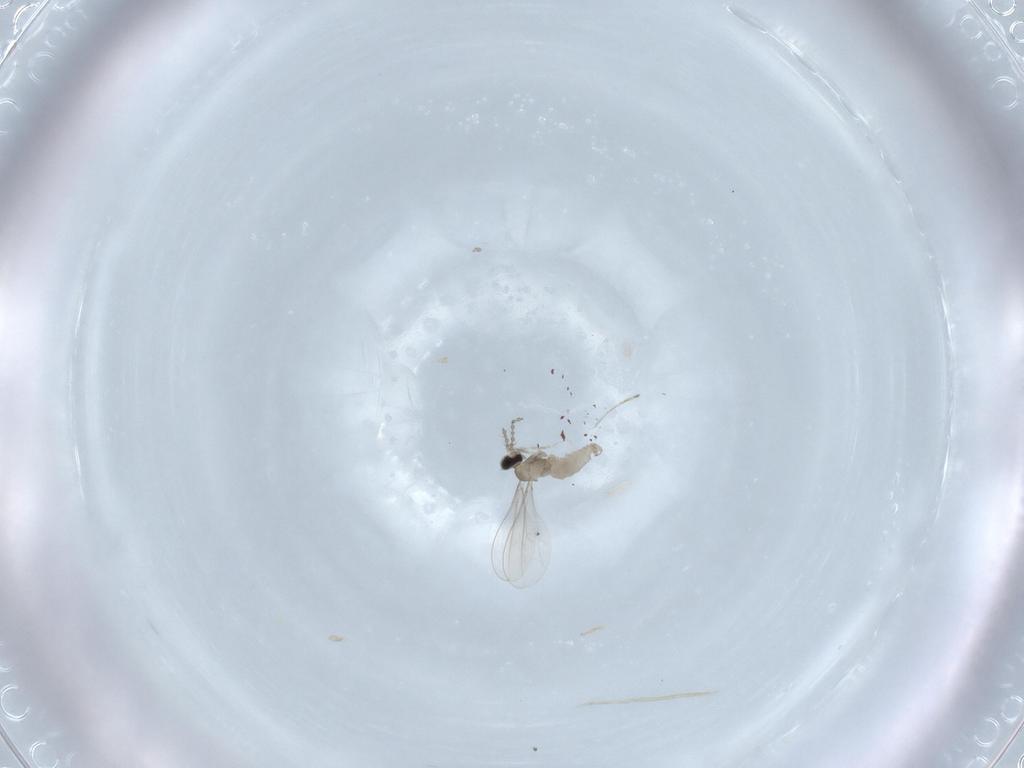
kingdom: Animalia
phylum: Arthropoda
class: Insecta
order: Diptera
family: Cecidomyiidae
